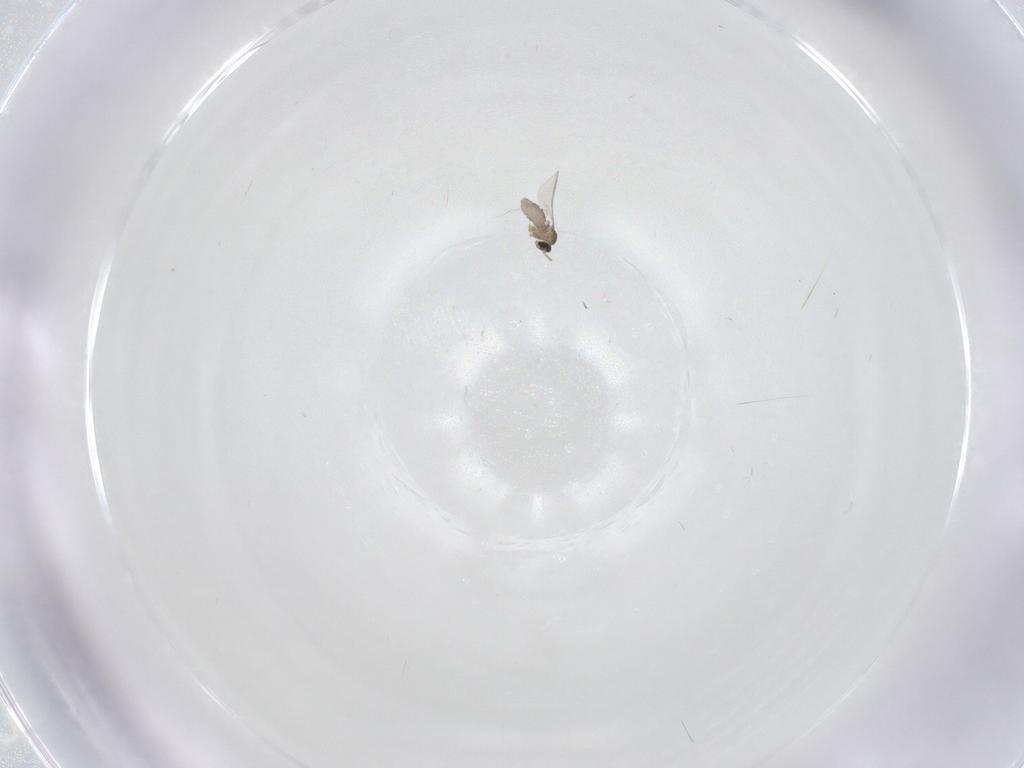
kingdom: Animalia
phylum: Arthropoda
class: Insecta
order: Diptera
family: Cecidomyiidae
